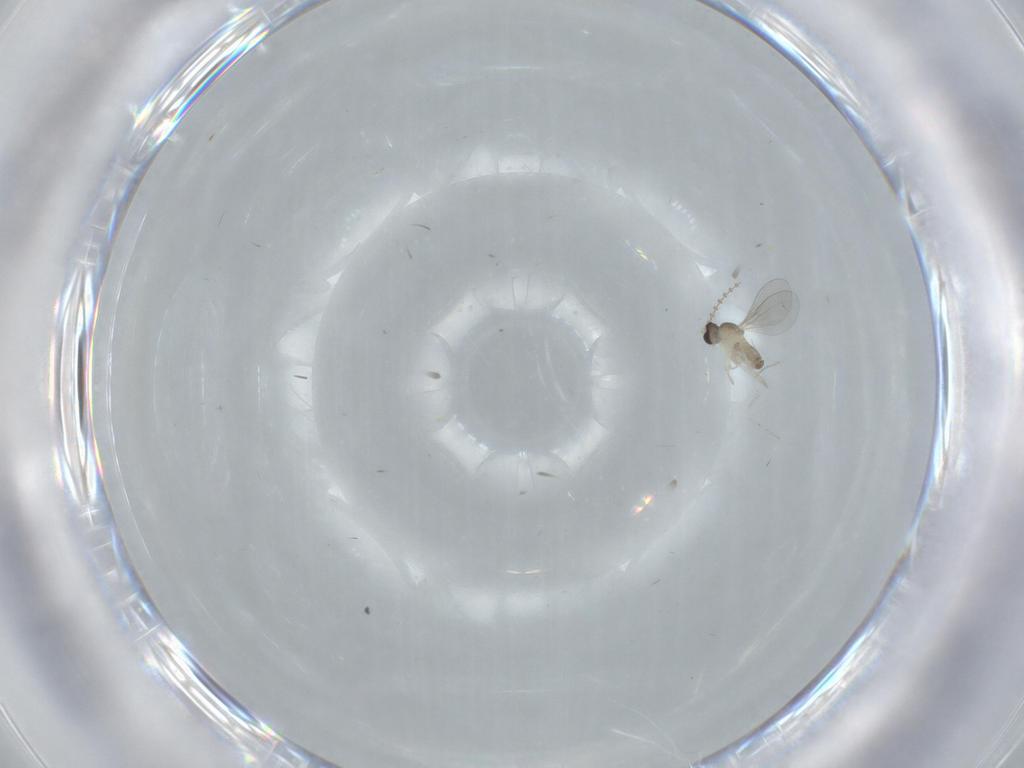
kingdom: Animalia
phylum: Arthropoda
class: Insecta
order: Diptera
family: Cecidomyiidae
